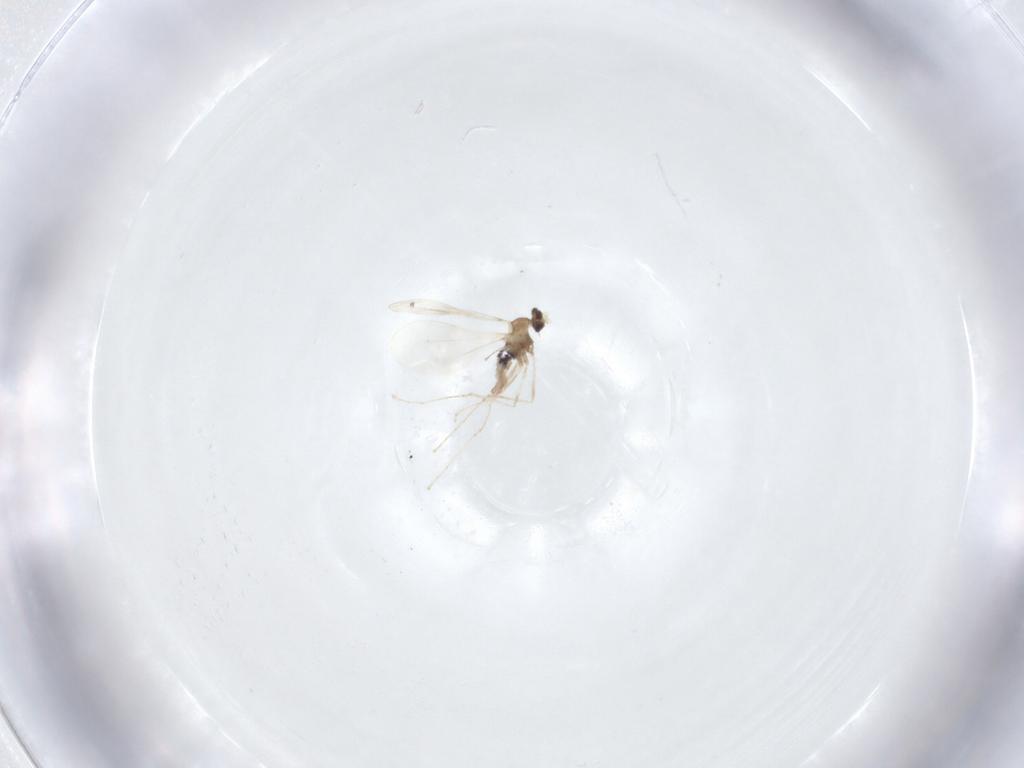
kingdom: Animalia
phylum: Arthropoda
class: Insecta
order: Diptera
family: Cecidomyiidae
